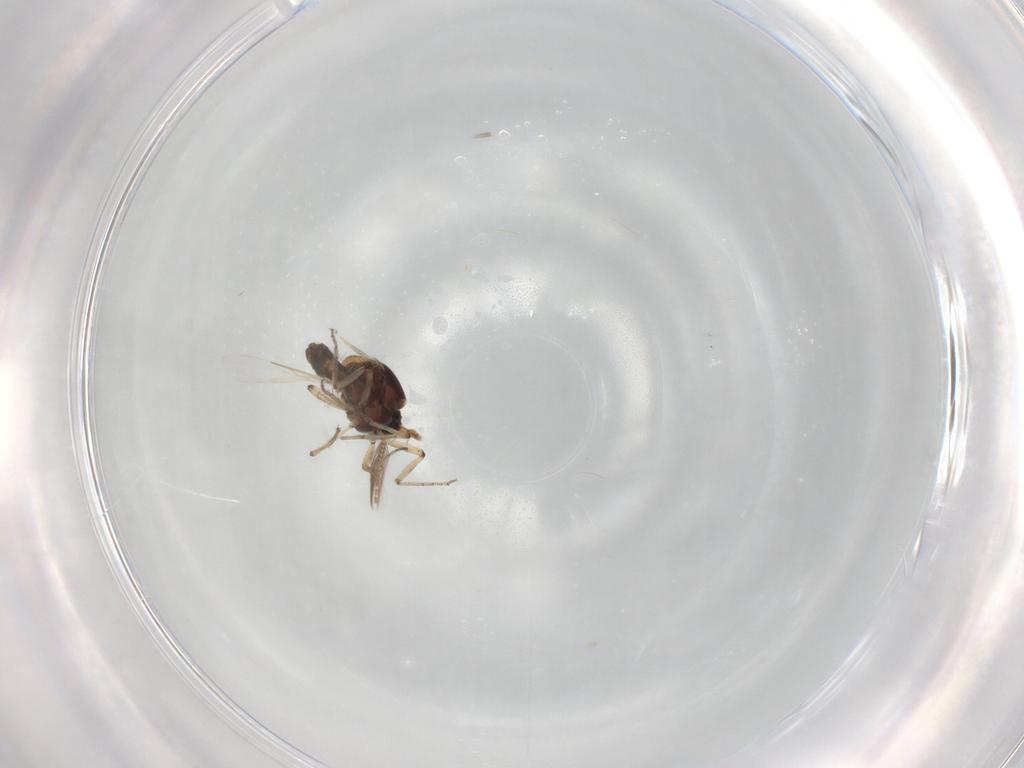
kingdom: Animalia
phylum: Arthropoda
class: Insecta
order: Diptera
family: Ceratopogonidae
